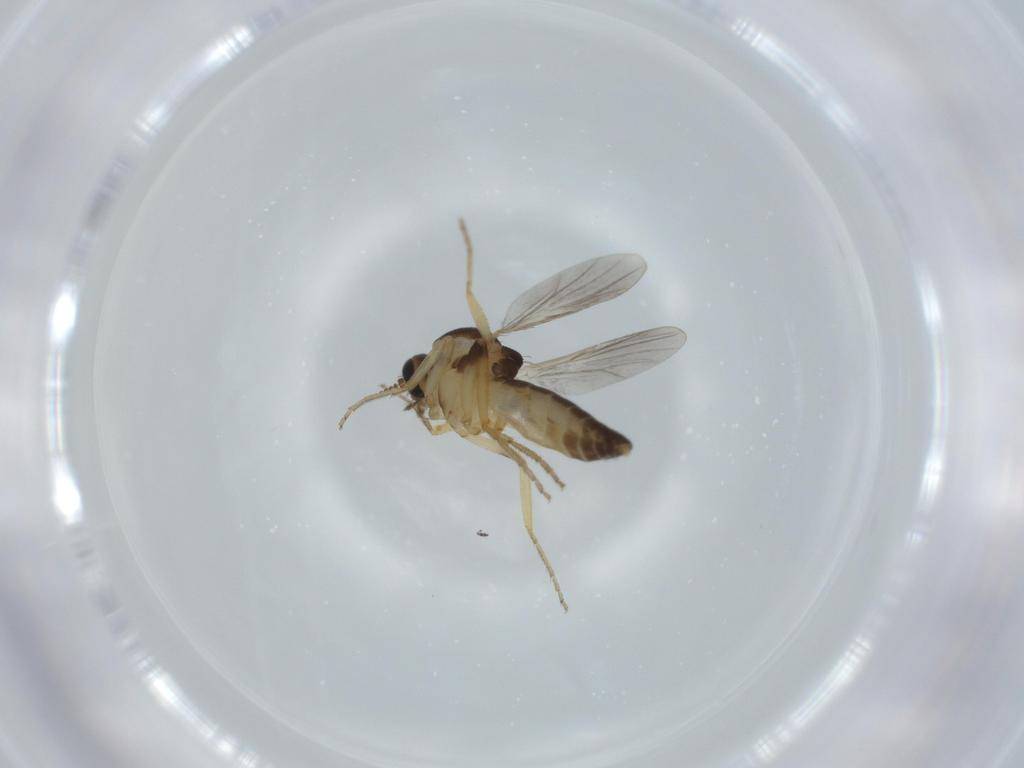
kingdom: Animalia
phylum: Arthropoda
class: Insecta
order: Diptera
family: Ceratopogonidae
